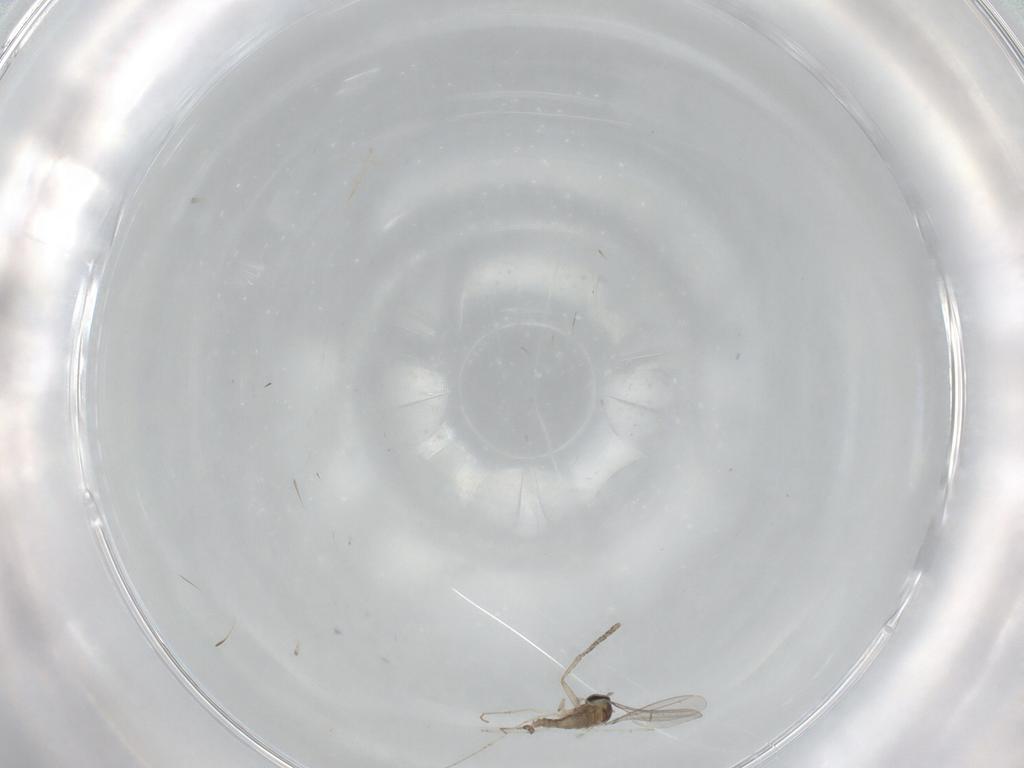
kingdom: Animalia
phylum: Arthropoda
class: Insecta
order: Diptera
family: Cecidomyiidae
